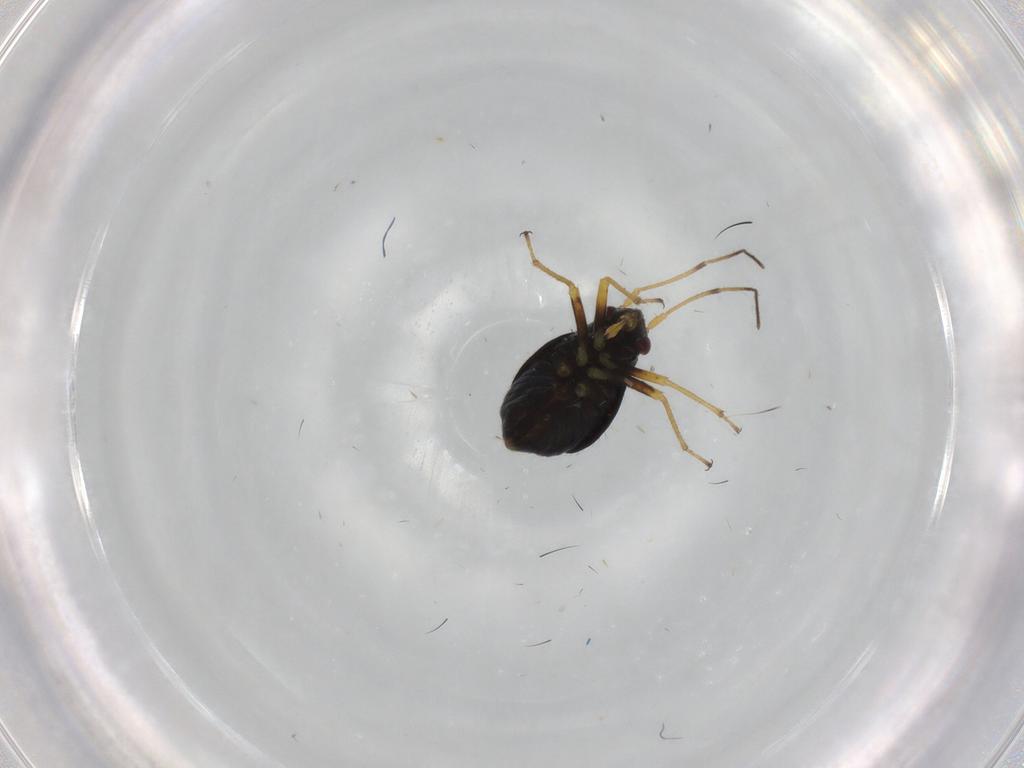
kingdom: Animalia
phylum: Arthropoda
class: Insecta
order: Hemiptera
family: Miridae
